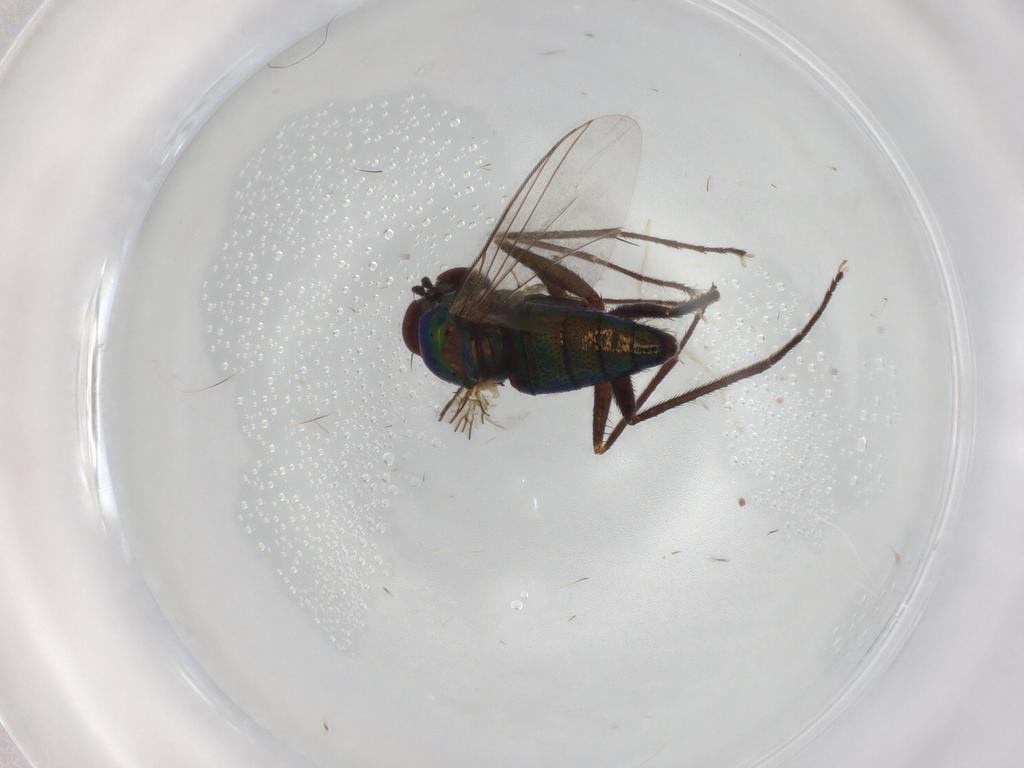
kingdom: Animalia
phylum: Arthropoda
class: Insecta
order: Diptera
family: Dolichopodidae
